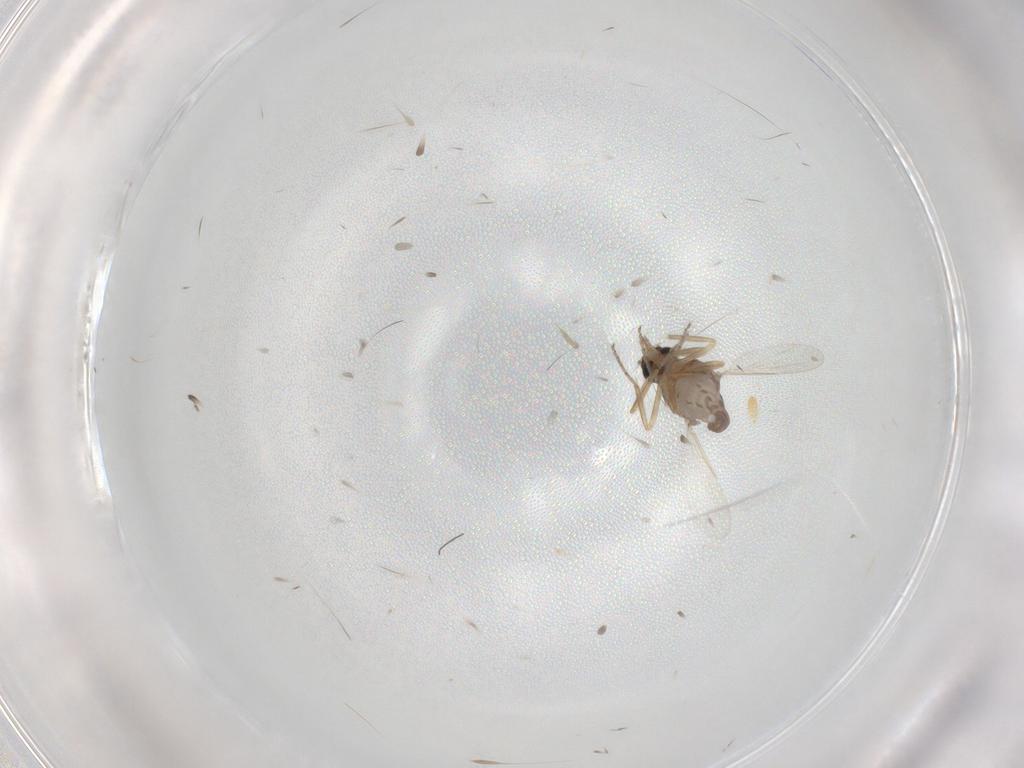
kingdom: Animalia
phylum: Arthropoda
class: Insecta
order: Diptera
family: Ceratopogonidae
